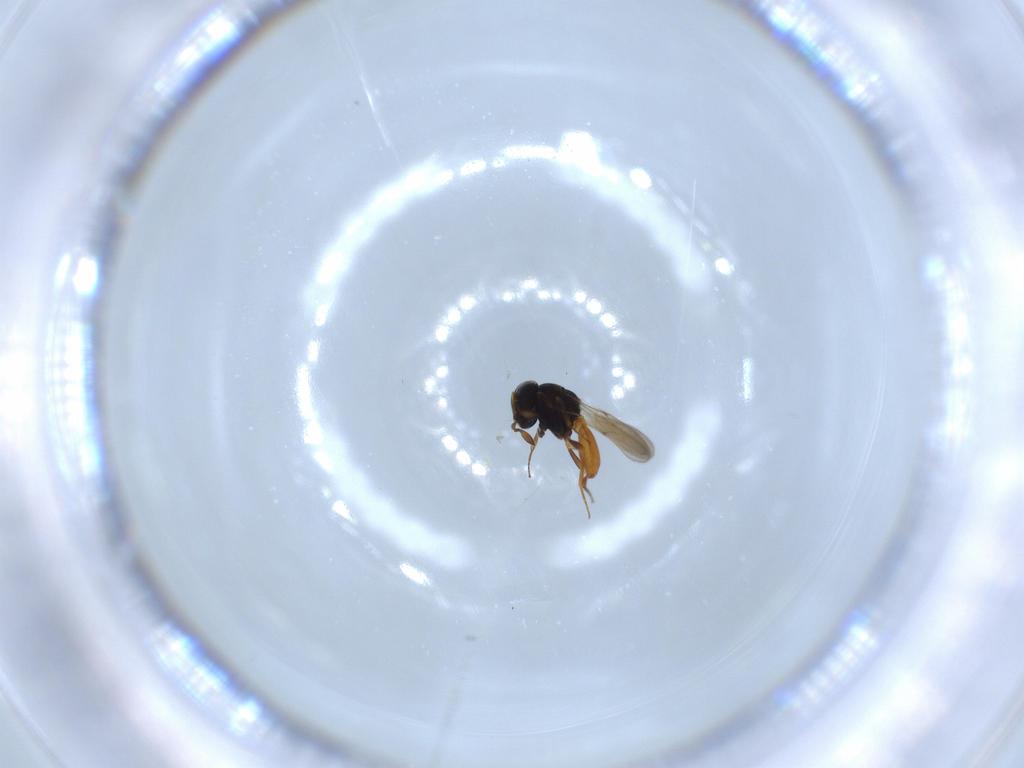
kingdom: Animalia
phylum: Arthropoda
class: Insecta
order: Hymenoptera
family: Scelionidae
